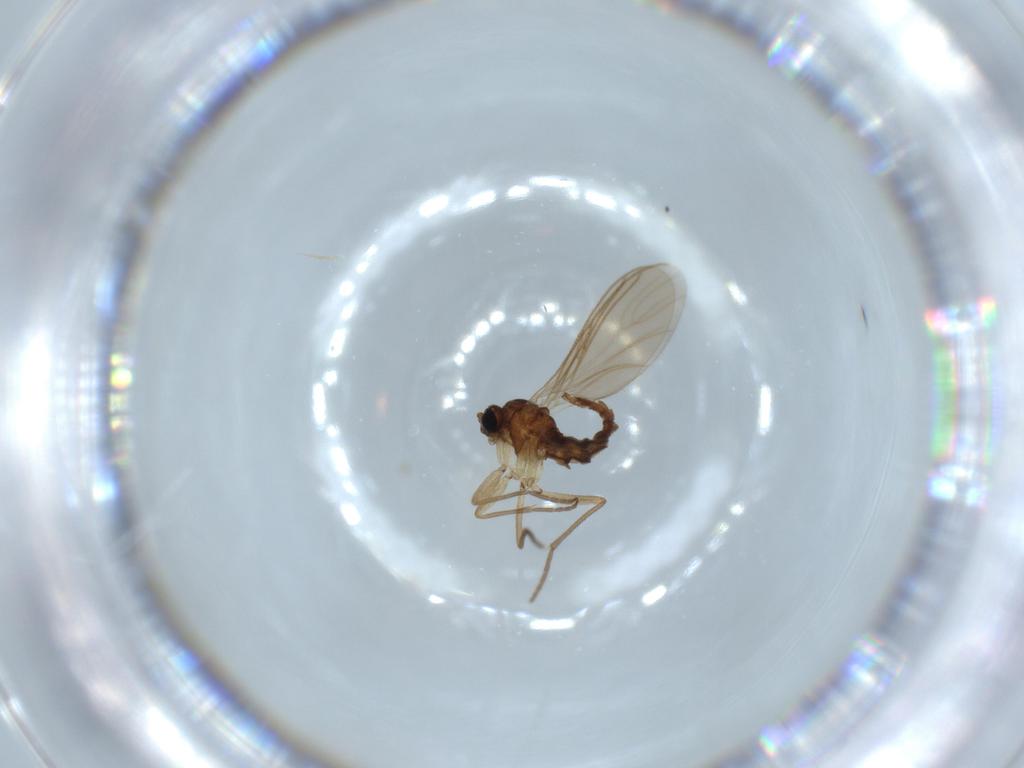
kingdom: Animalia
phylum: Arthropoda
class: Insecta
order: Diptera
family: Sciaridae
